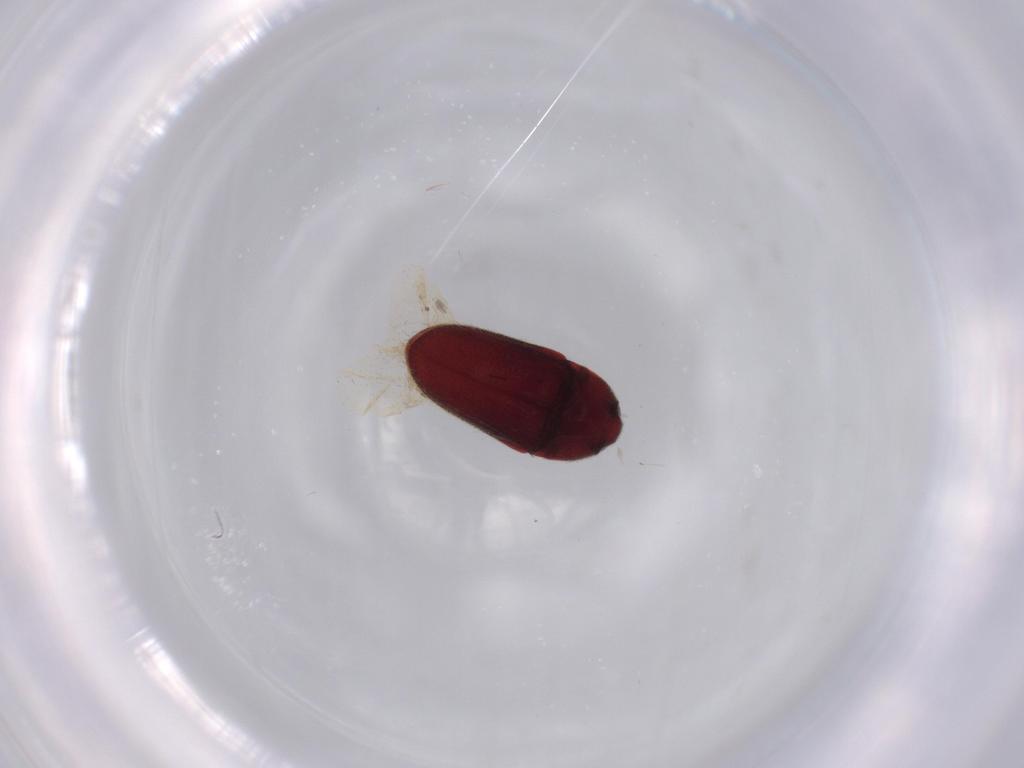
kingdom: Animalia
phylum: Arthropoda
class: Insecta
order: Coleoptera
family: Throscidae
